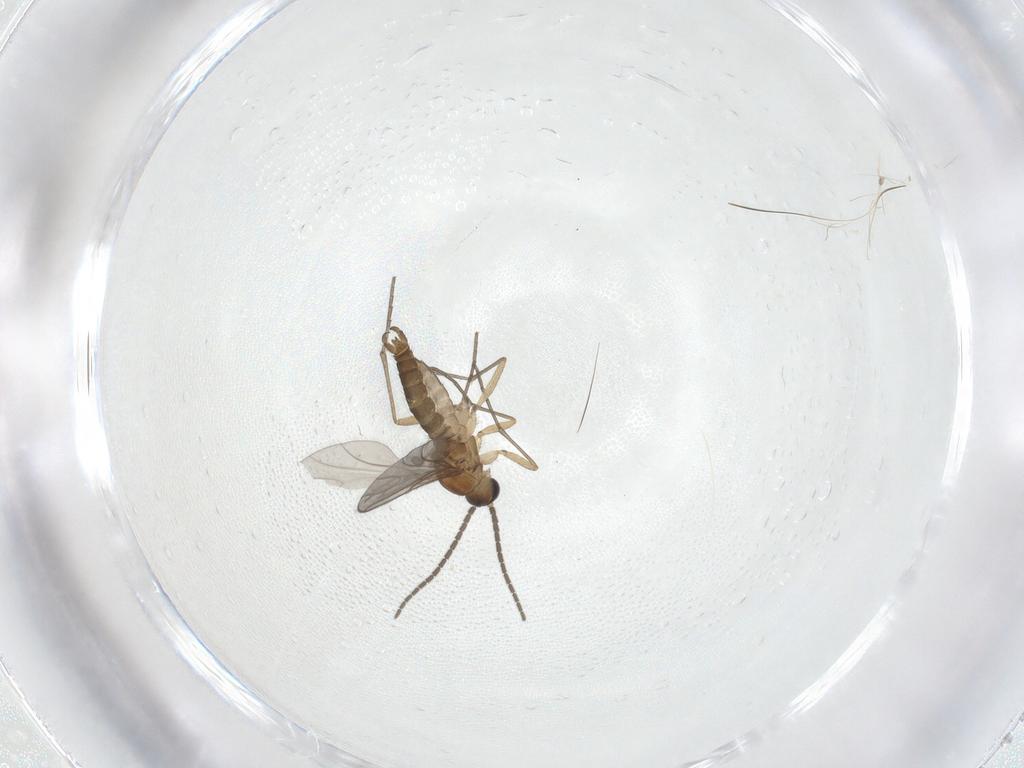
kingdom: Animalia
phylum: Arthropoda
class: Insecta
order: Diptera
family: Sciaridae
